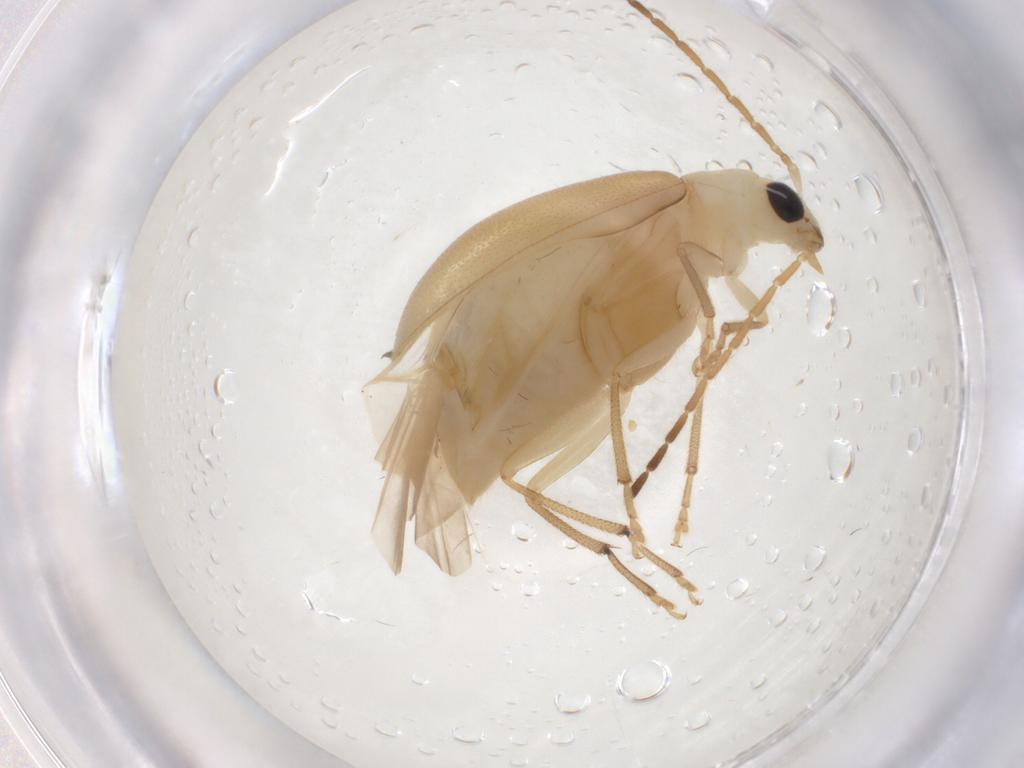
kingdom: Animalia
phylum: Arthropoda
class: Insecta
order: Coleoptera
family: Chrysomelidae
